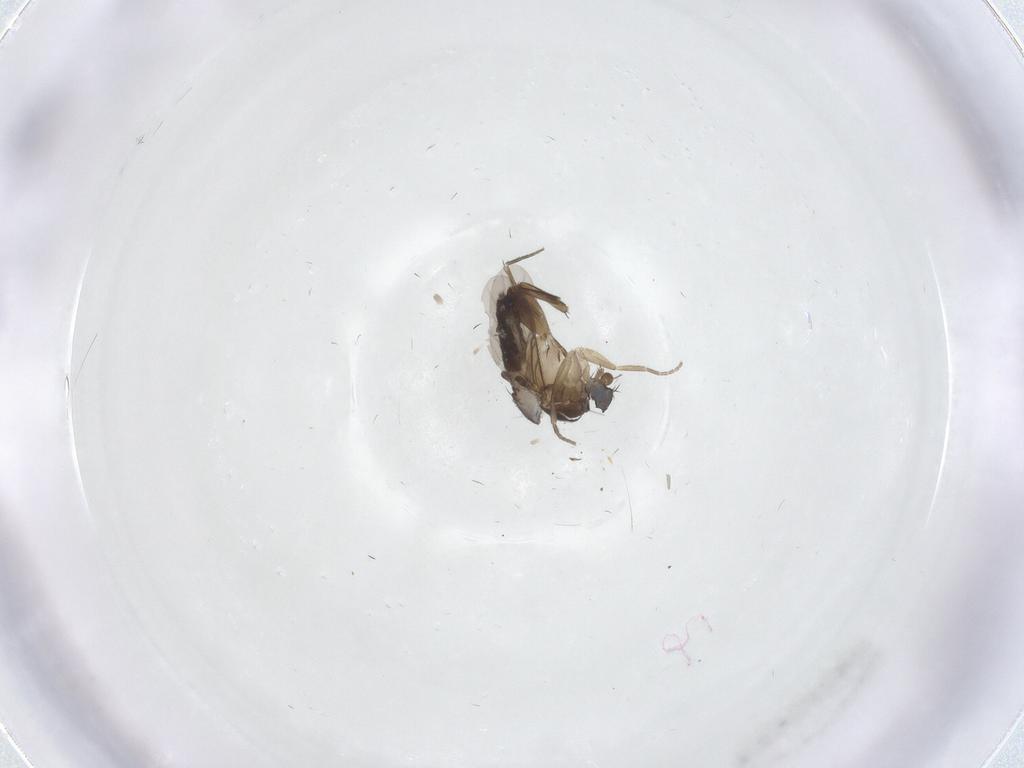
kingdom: Animalia
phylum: Arthropoda
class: Insecta
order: Diptera
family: Phoridae
